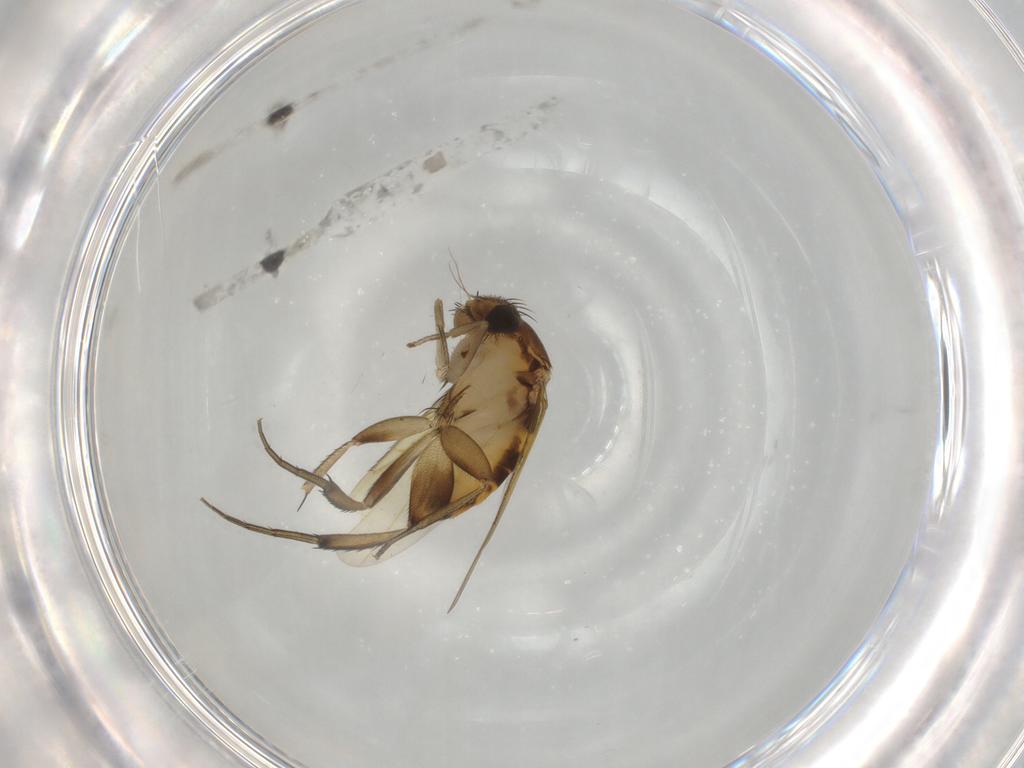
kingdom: Animalia
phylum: Arthropoda
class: Insecta
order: Diptera
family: Phoridae
